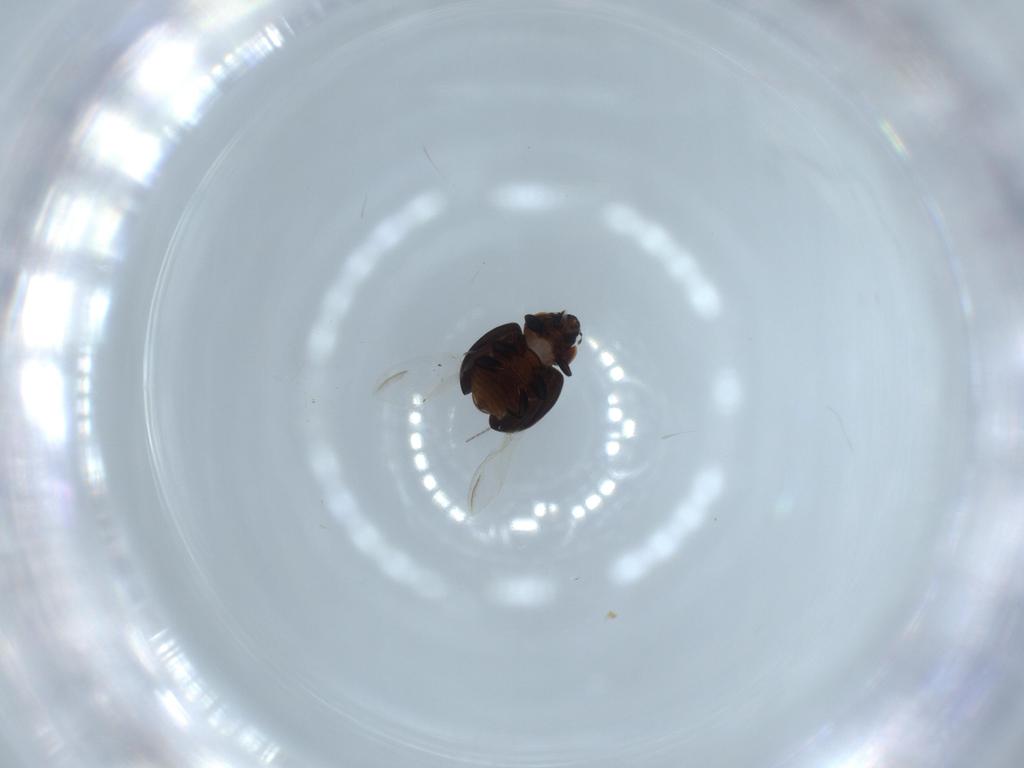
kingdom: Animalia
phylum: Arthropoda
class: Insecta
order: Coleoptera
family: Coccinellidae
